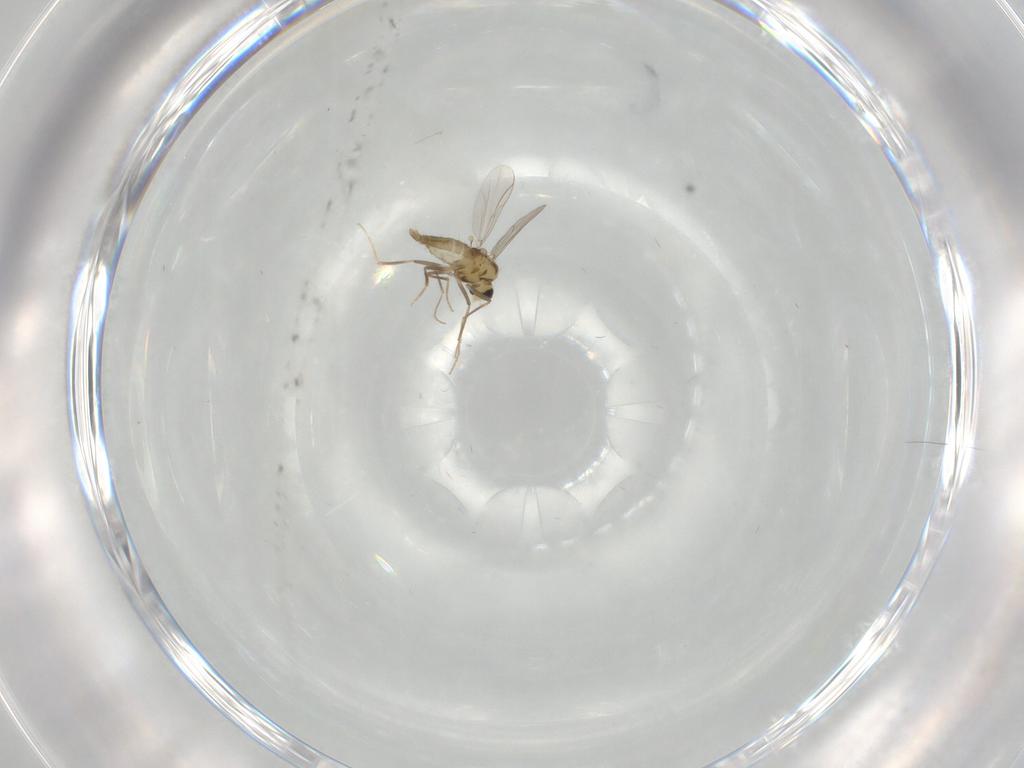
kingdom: Animalia
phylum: Arthropoda
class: Insecta
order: Diptera
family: Chironomidae
